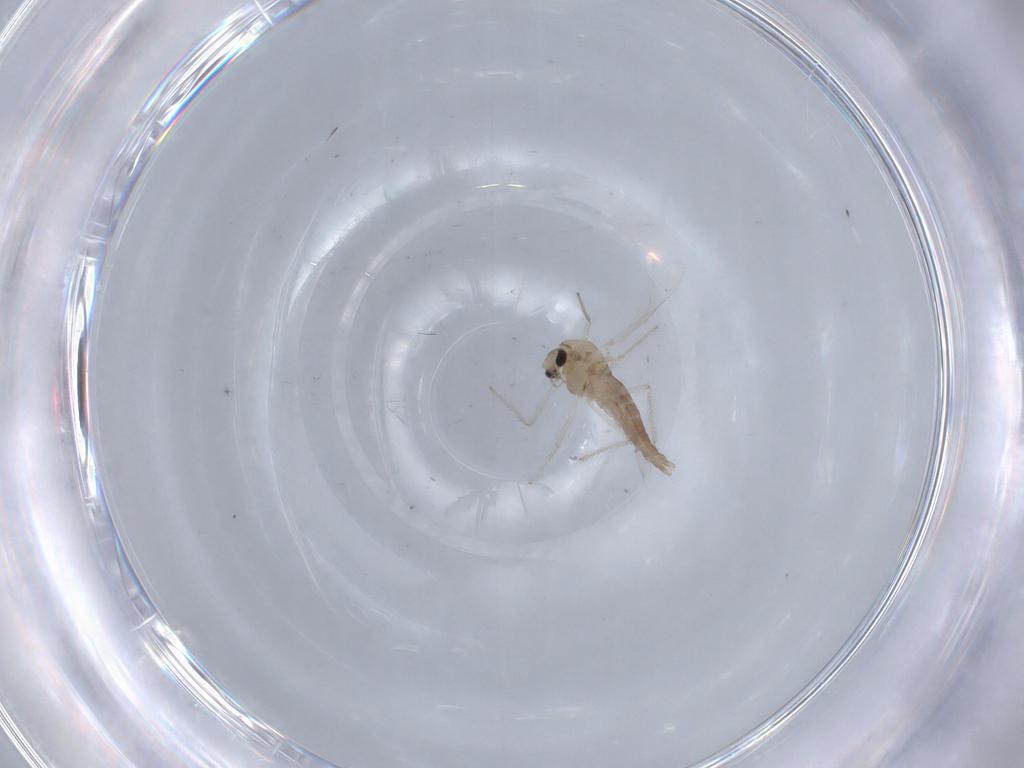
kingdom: Animalia
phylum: Arthropoda
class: Insecta
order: Diptera
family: Chironomidae
